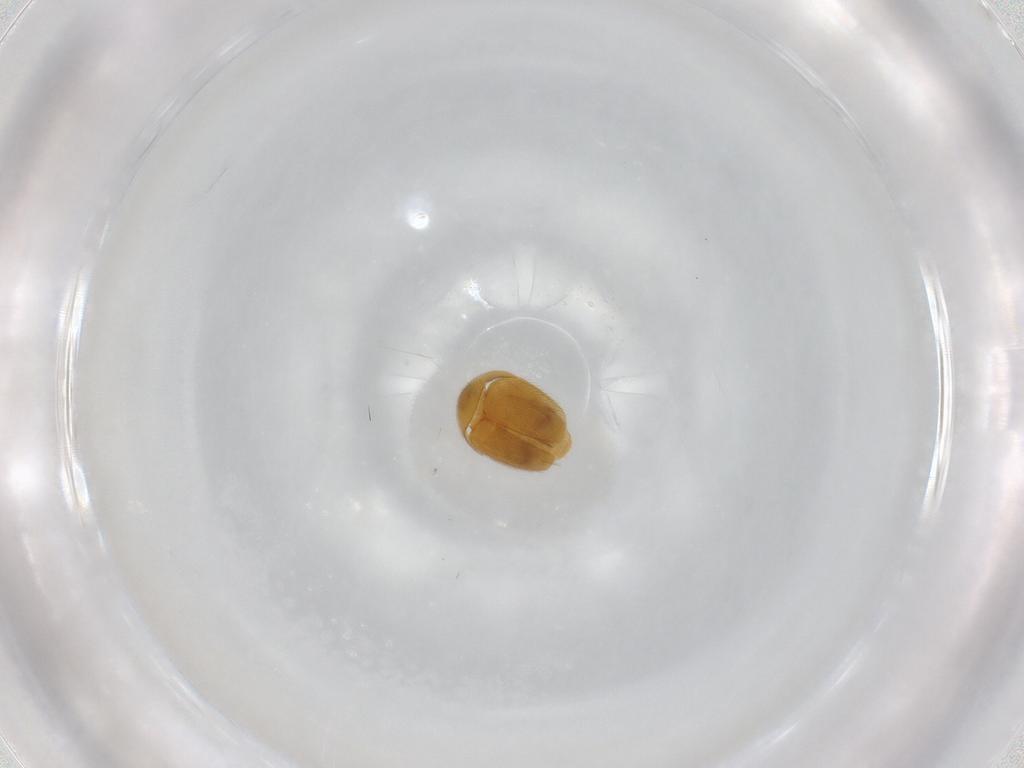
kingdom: Animalia
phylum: Arthropoda
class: Insecta
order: Coleoptera
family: Corylophidae
